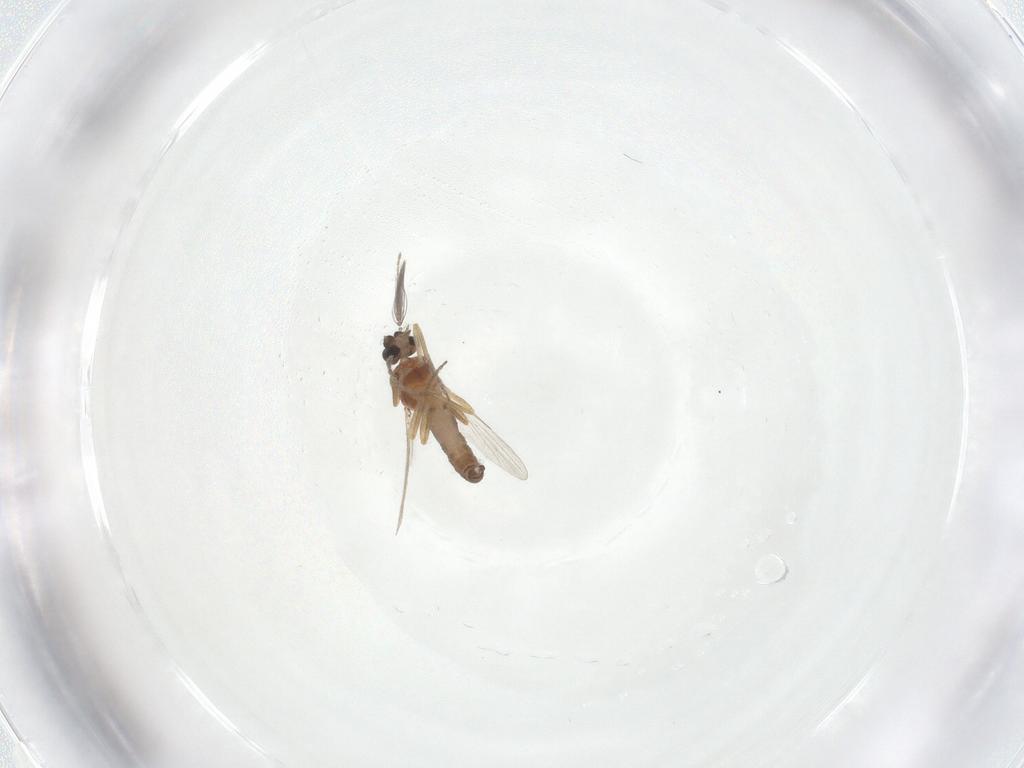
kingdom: Animalia
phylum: Arthropoda
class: Insecta
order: Diptera
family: Ceratopogonidae
